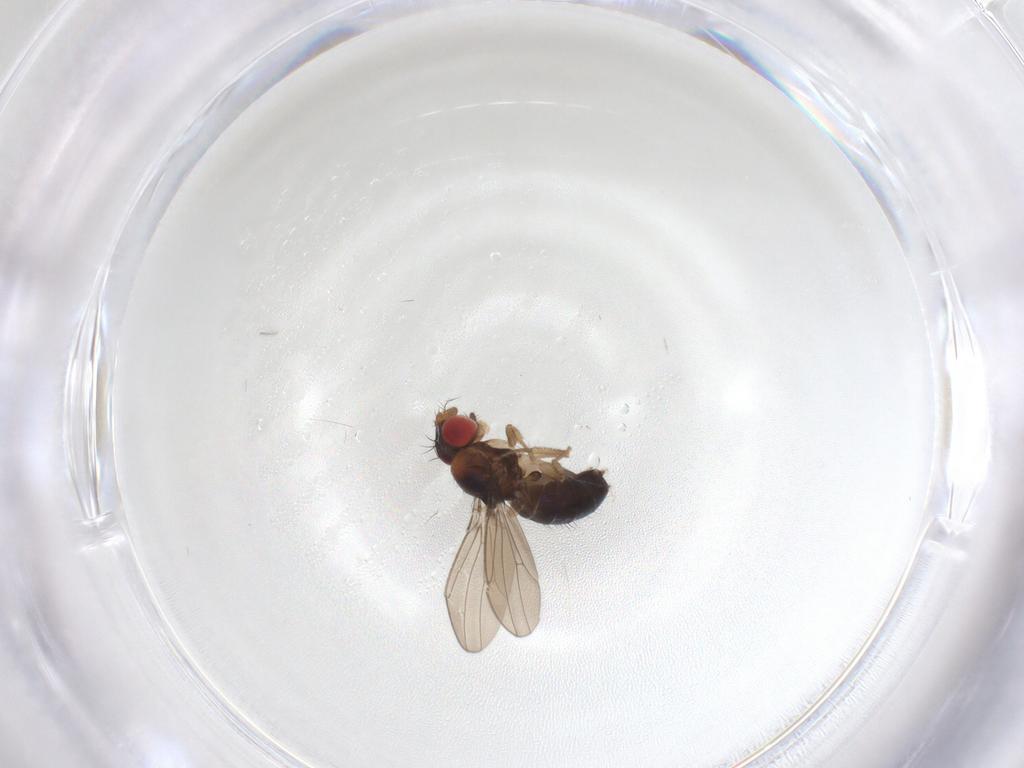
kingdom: Animalia
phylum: Arthropoda
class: Insecta
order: Diptera
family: Drosophilidae
